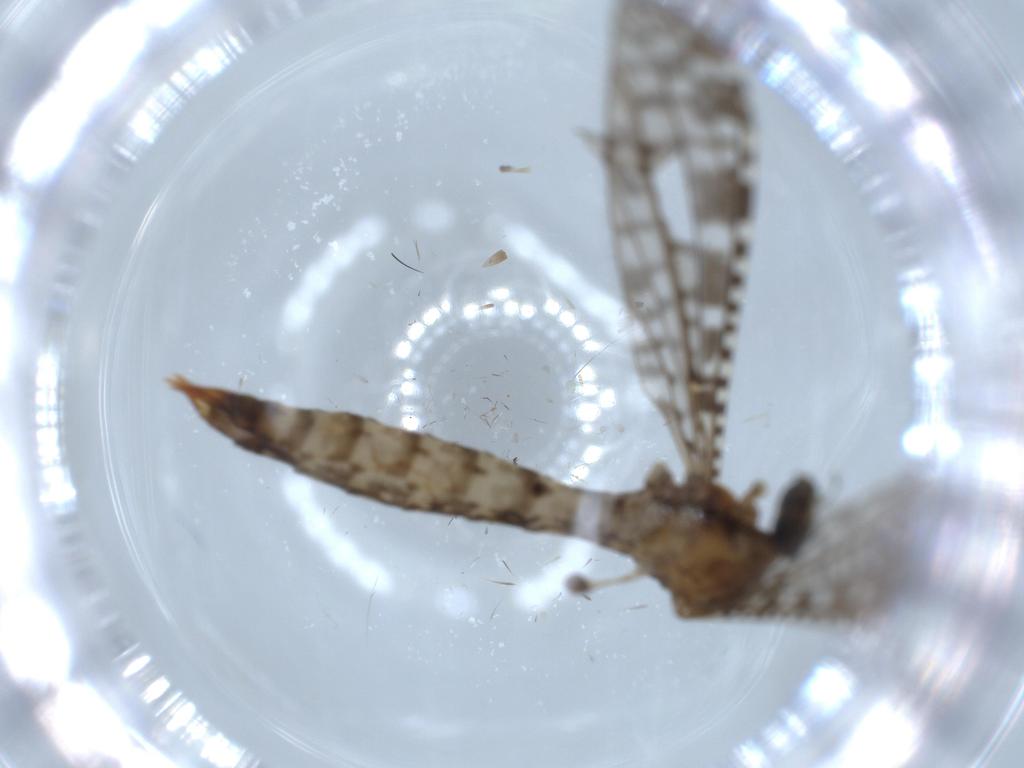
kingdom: Animalia
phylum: Arthropoda
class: Insecta
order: Diptera
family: Limoniidae
